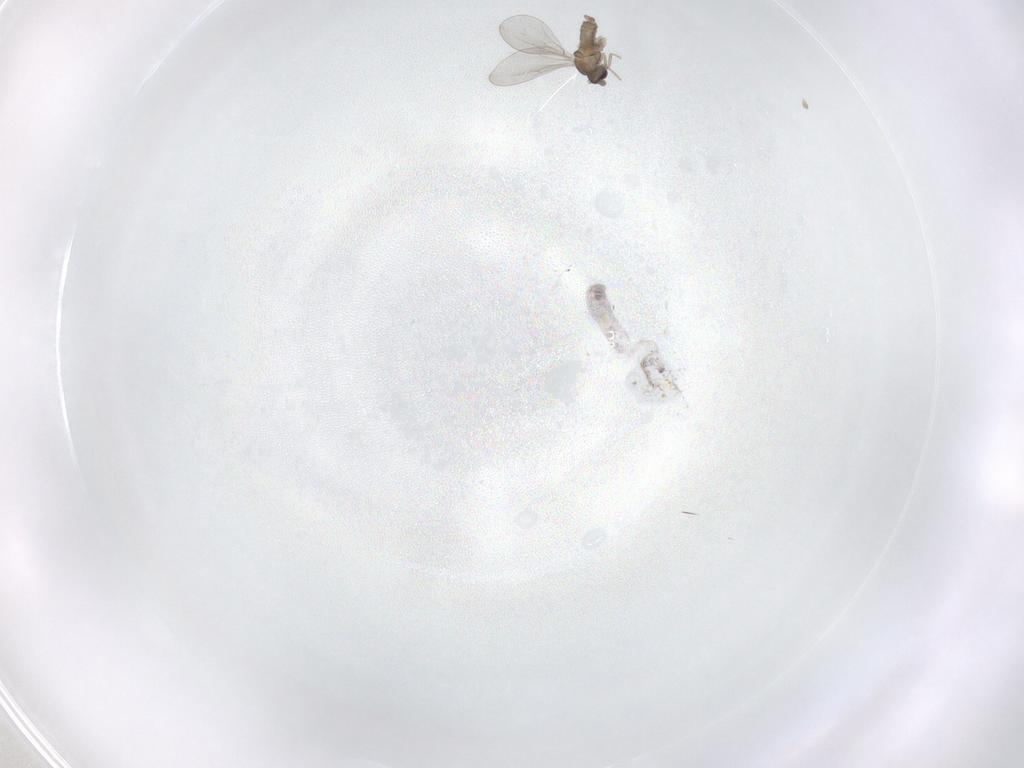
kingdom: Animalia
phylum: Arthropoda
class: Insecta
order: Diptera
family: Cecidomyiidae
